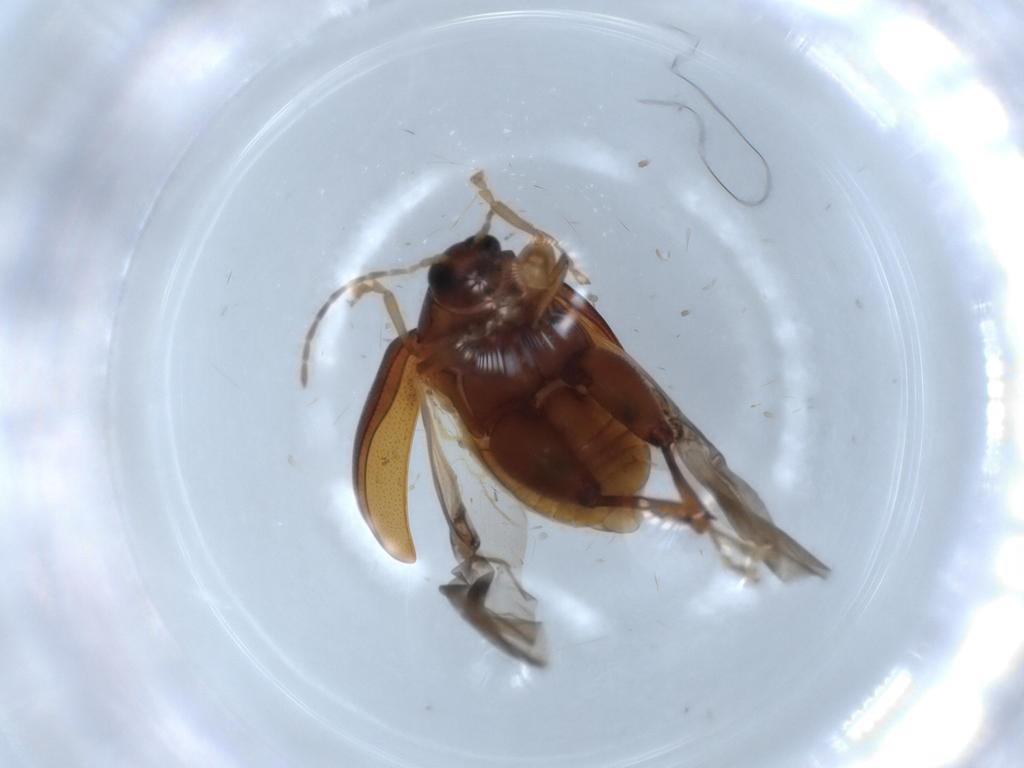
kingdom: Animalia
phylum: Arthropoda
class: Insecta
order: Coleoptera
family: Chrysomelidae
